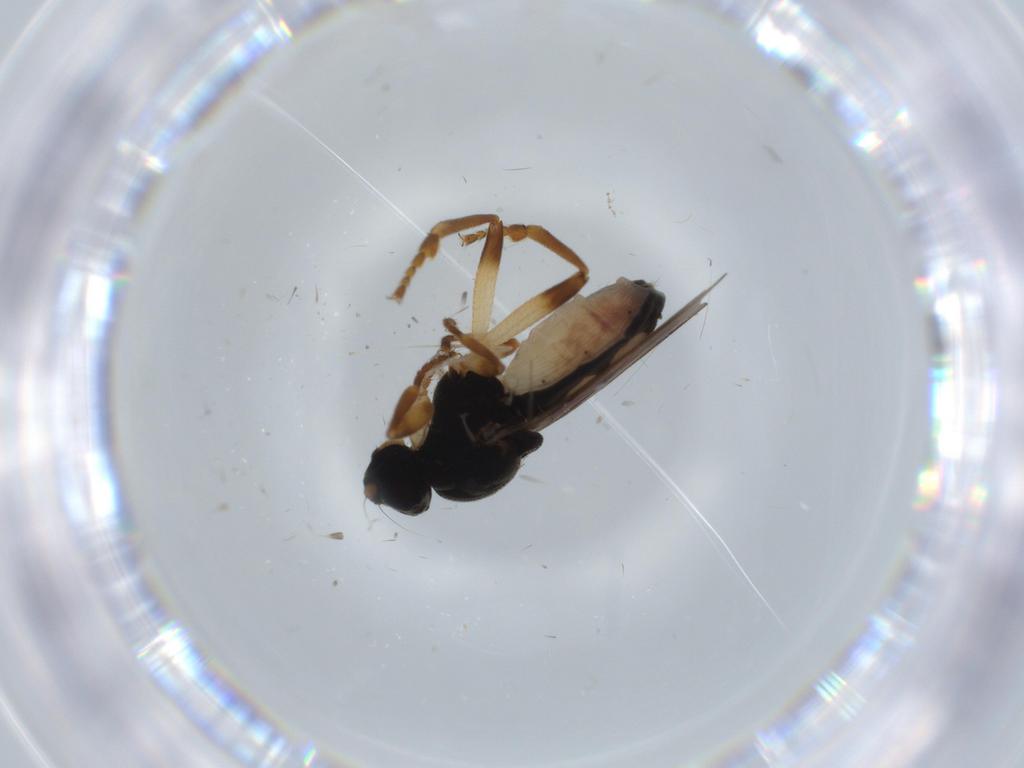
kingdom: Animalia
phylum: Arthropoda
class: Insecta
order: Diptera
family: Cecidomyiidae
